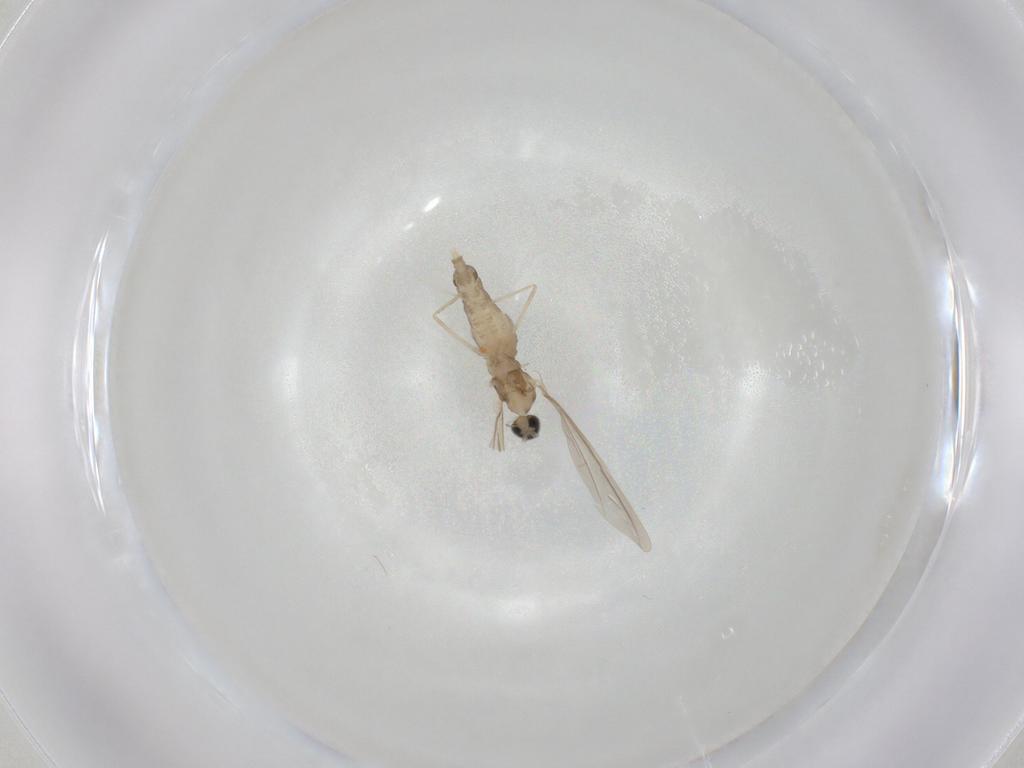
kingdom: Animalia
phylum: Arthropoda
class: Insecta
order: Diptera
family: Cecidomyiidae
